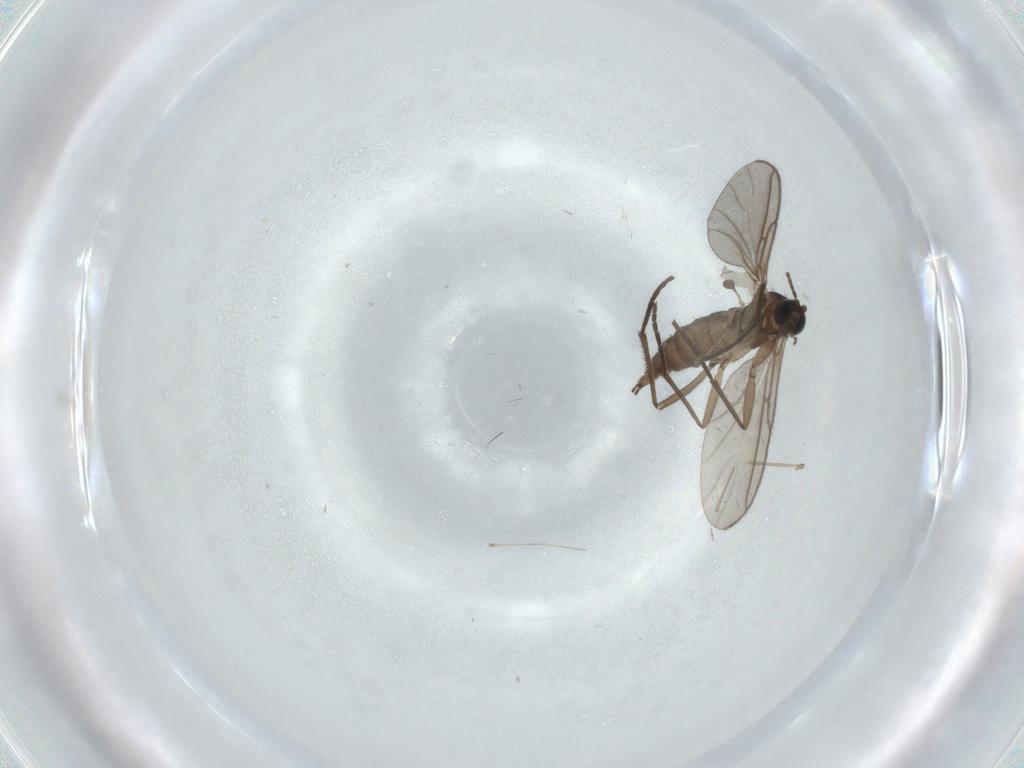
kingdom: Animalia
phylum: Arthropoda
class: Insecta
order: Diptera
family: Sciaridae
